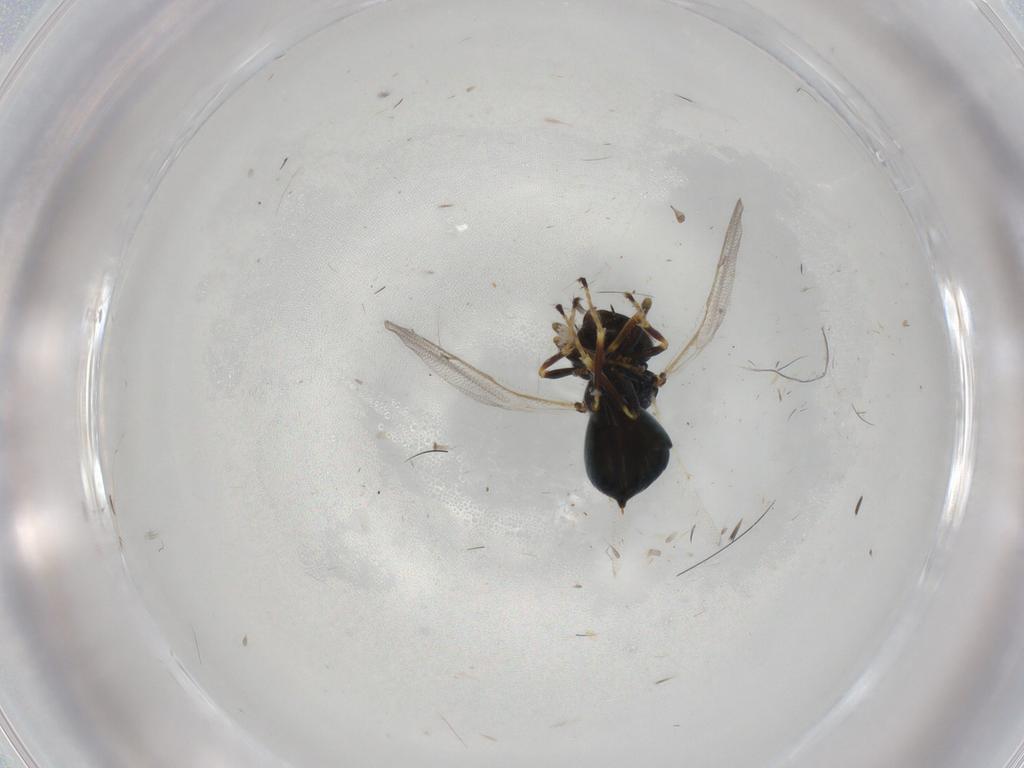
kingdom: Animalia
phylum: Arthropoda
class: Insecta
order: Hymenoptera
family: Pteromalidae
